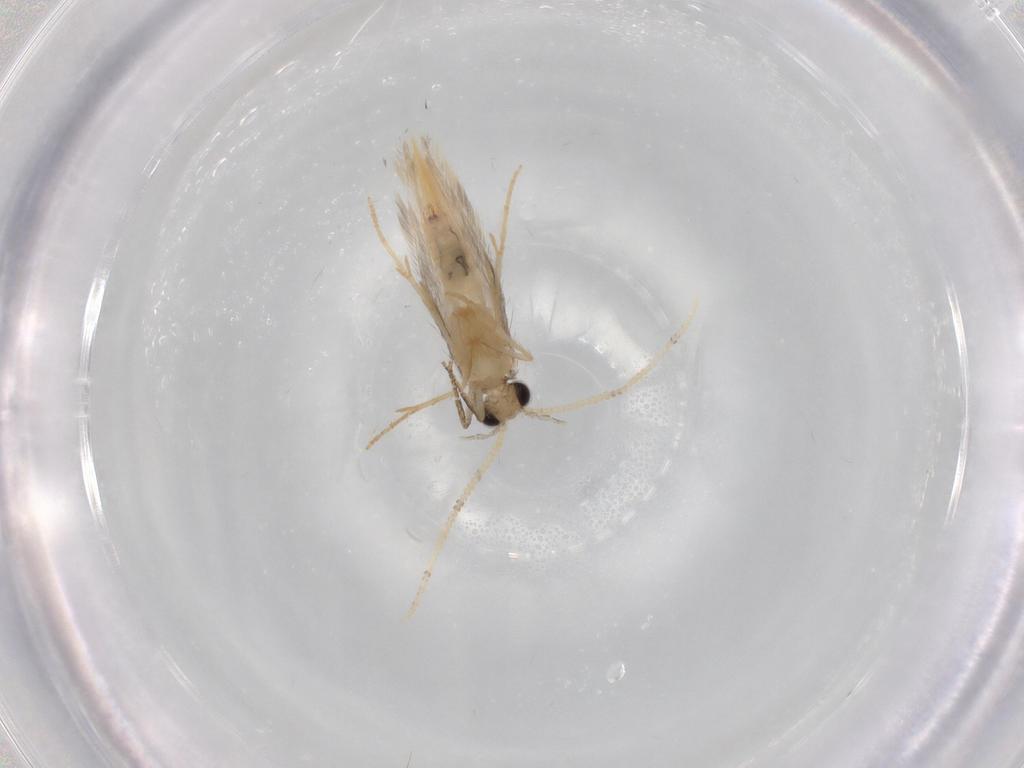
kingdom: Animalia
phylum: Arthropoda
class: Insecta
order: Trichoptera
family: Hydroptilidae
